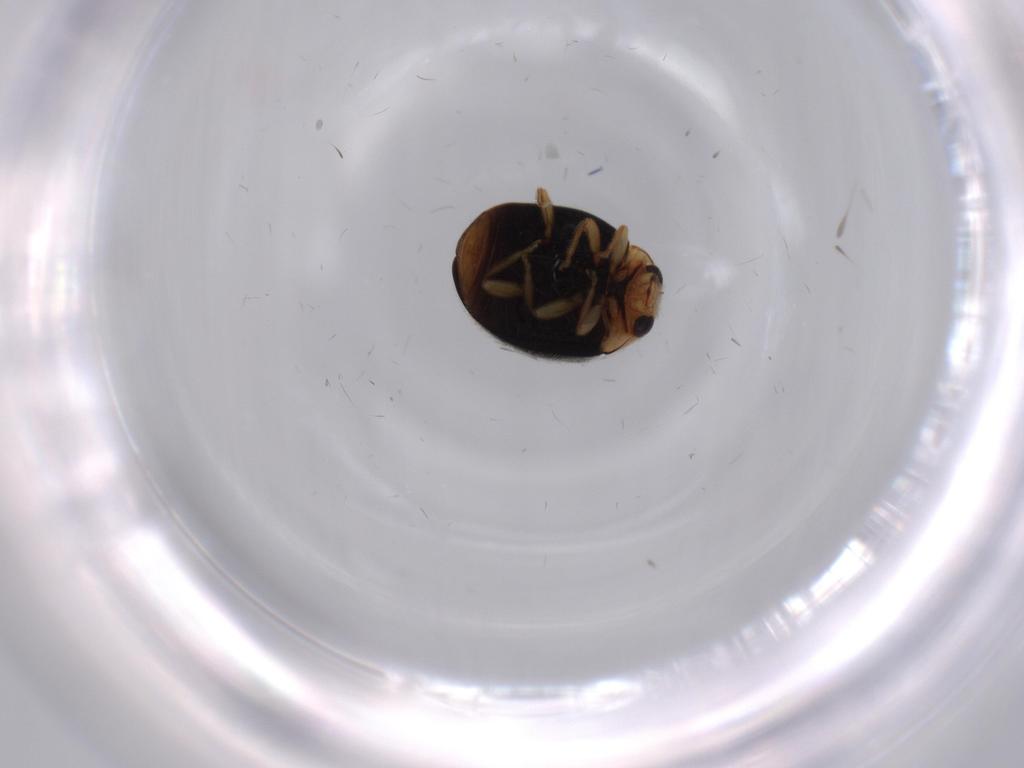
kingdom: Animalia
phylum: Arthropoda
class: Insecta
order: Coleoptera
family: Coccinellidae
